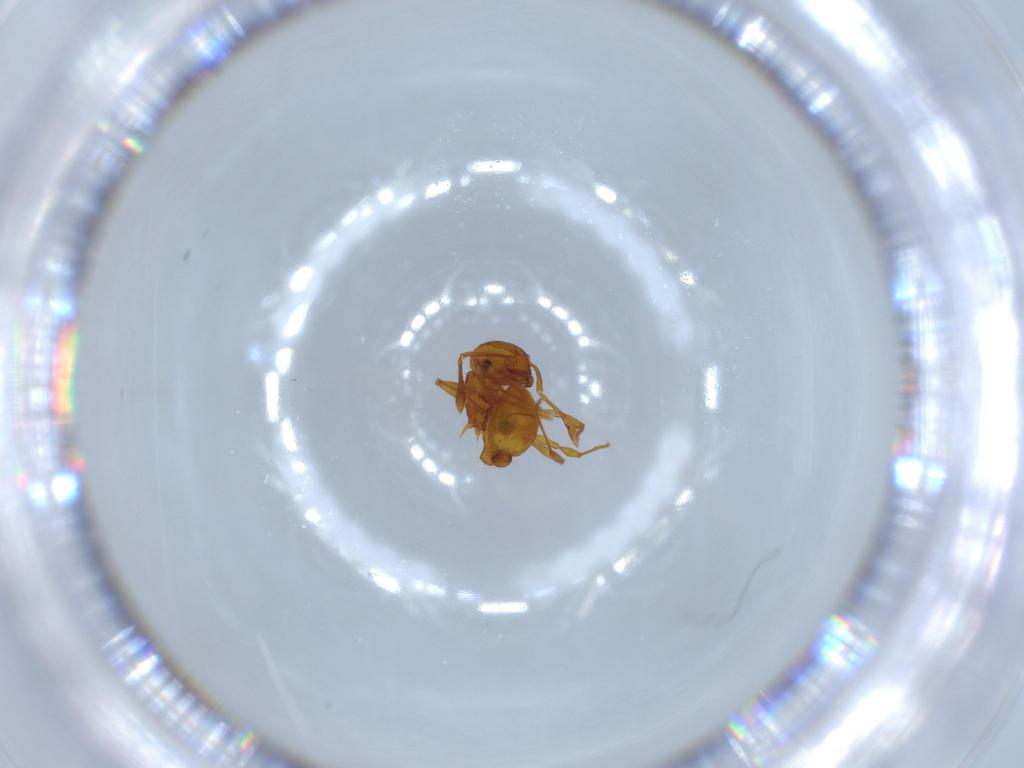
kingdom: Animalia
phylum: Arthropoda
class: Insecta
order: Hymenoptera
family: Formicidae
